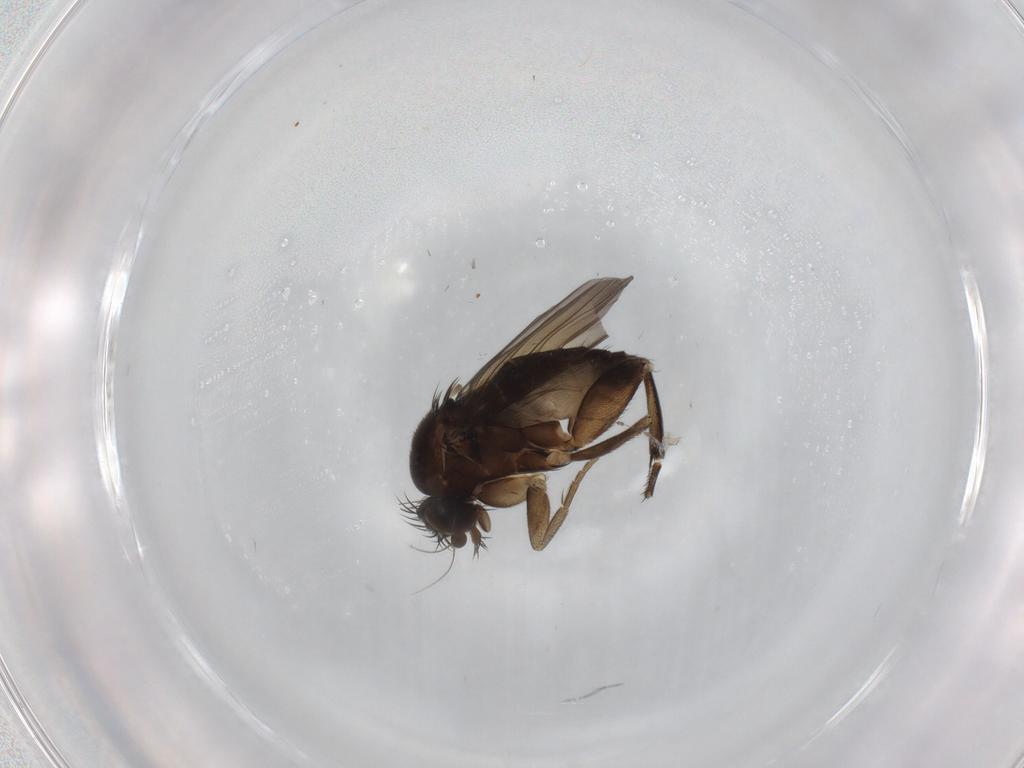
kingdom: Animalia
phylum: Arthropoda
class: Insecta
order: Diptera
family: Phoridae
